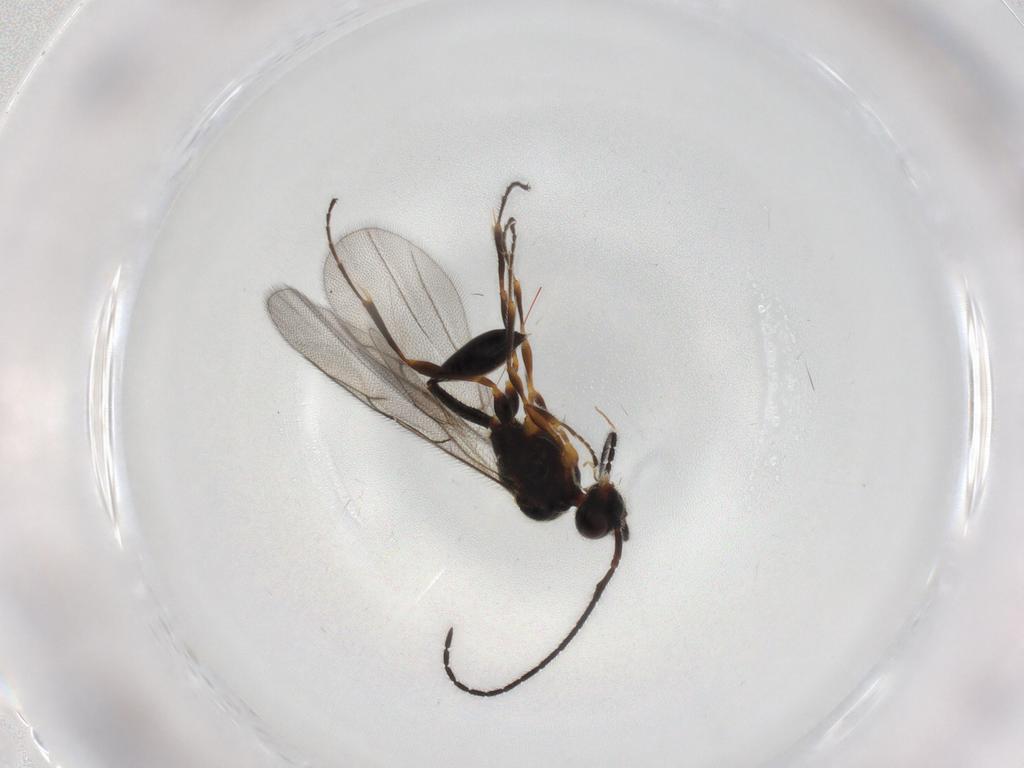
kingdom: Animalia
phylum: Arthropoda
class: Insecta
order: Hymenoptera
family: Diapriidae
